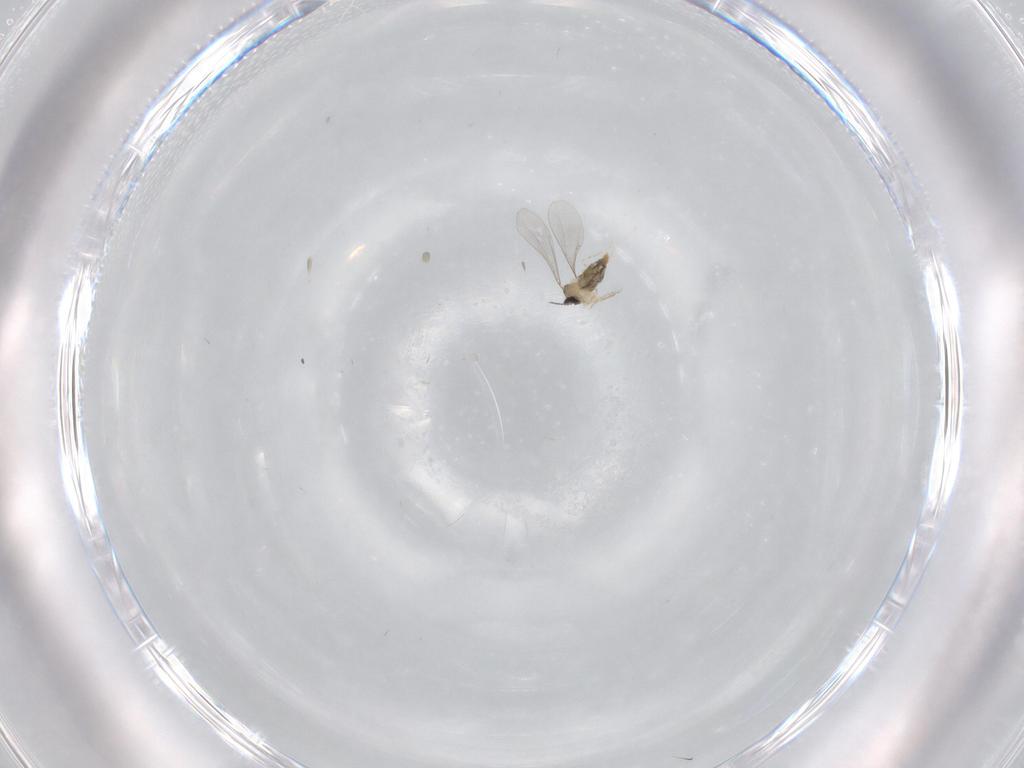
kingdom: Animalia
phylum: Arthropoda
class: Insecta
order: Diptera
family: Cecidomyiidae
